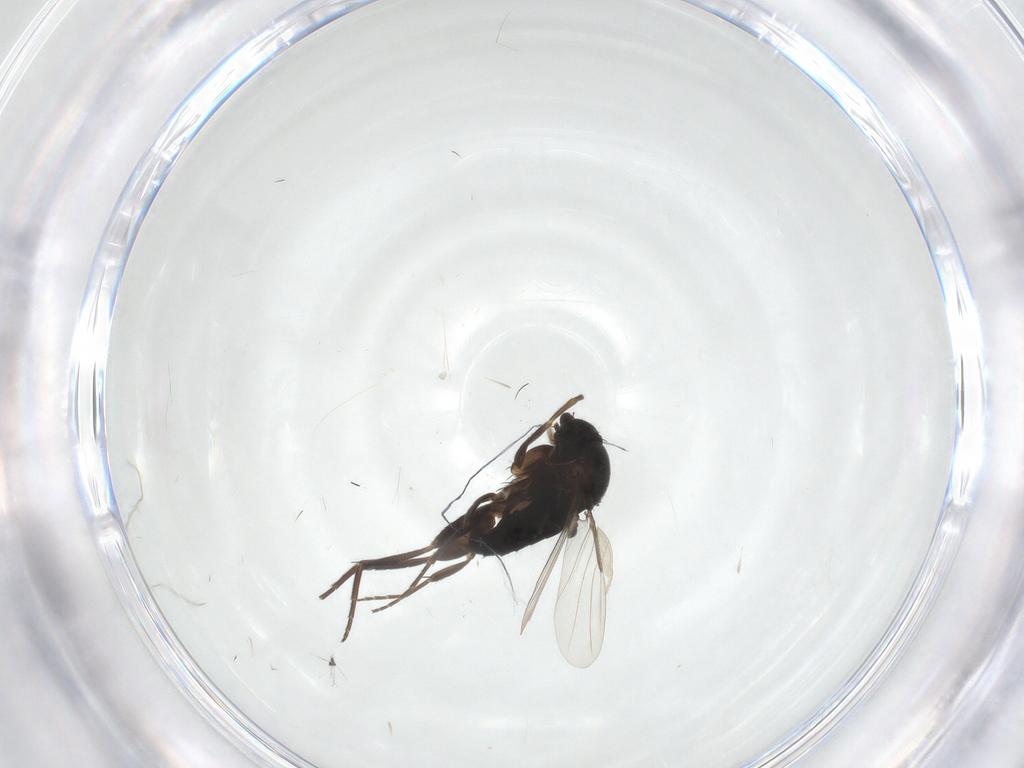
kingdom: Animalia
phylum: Arthropoda
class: Insecta
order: Diptera
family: Phoridae
